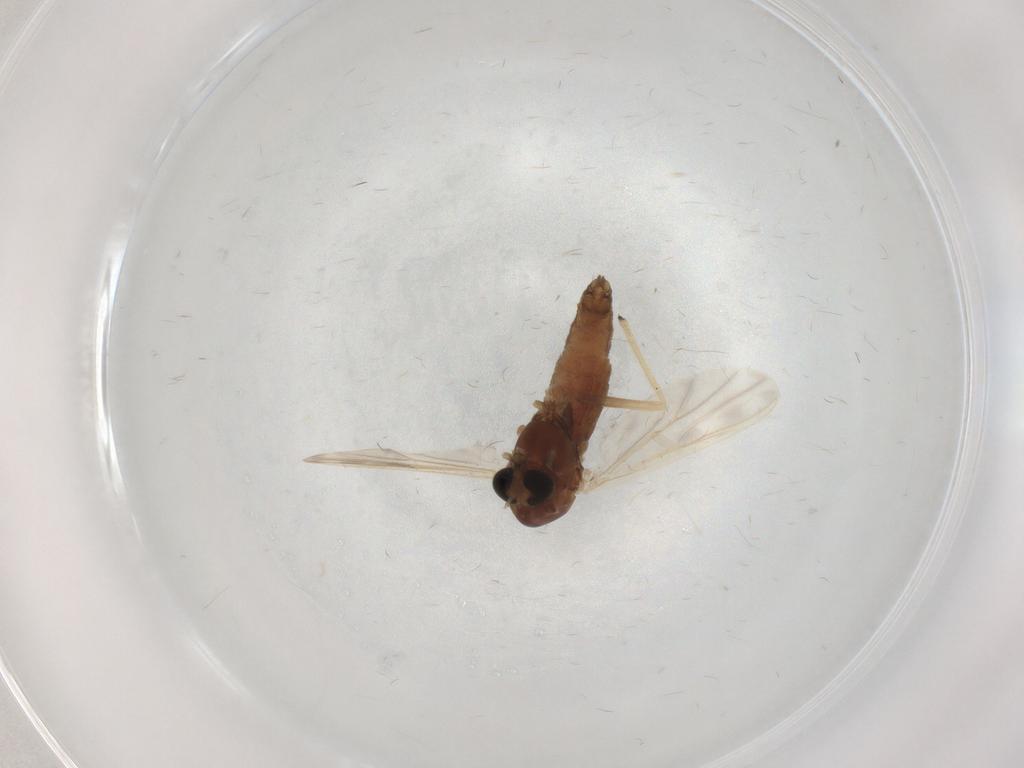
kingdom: Animalia
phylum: Arthropoda
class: Insecta
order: Diptera
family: Chironomidae
